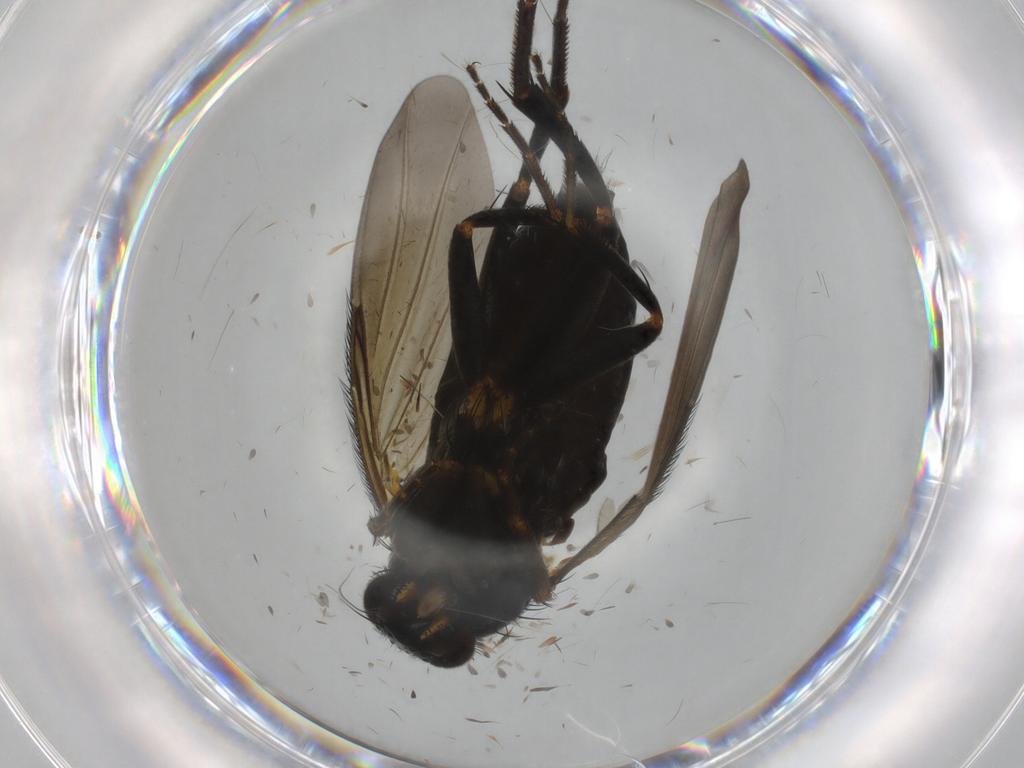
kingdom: Animalia
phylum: Arthropoda
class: Insecta
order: Diptera
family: Phoridae
